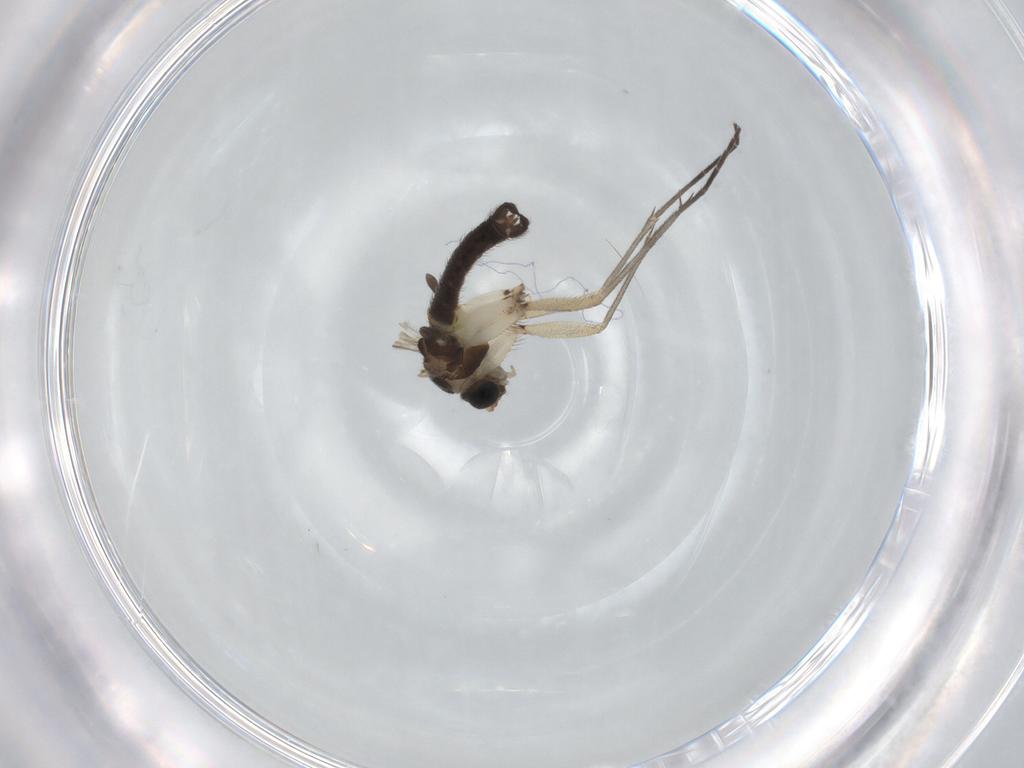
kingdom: Animalia
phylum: Arthropoda
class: Insecta
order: Diptera
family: Sciaridae
